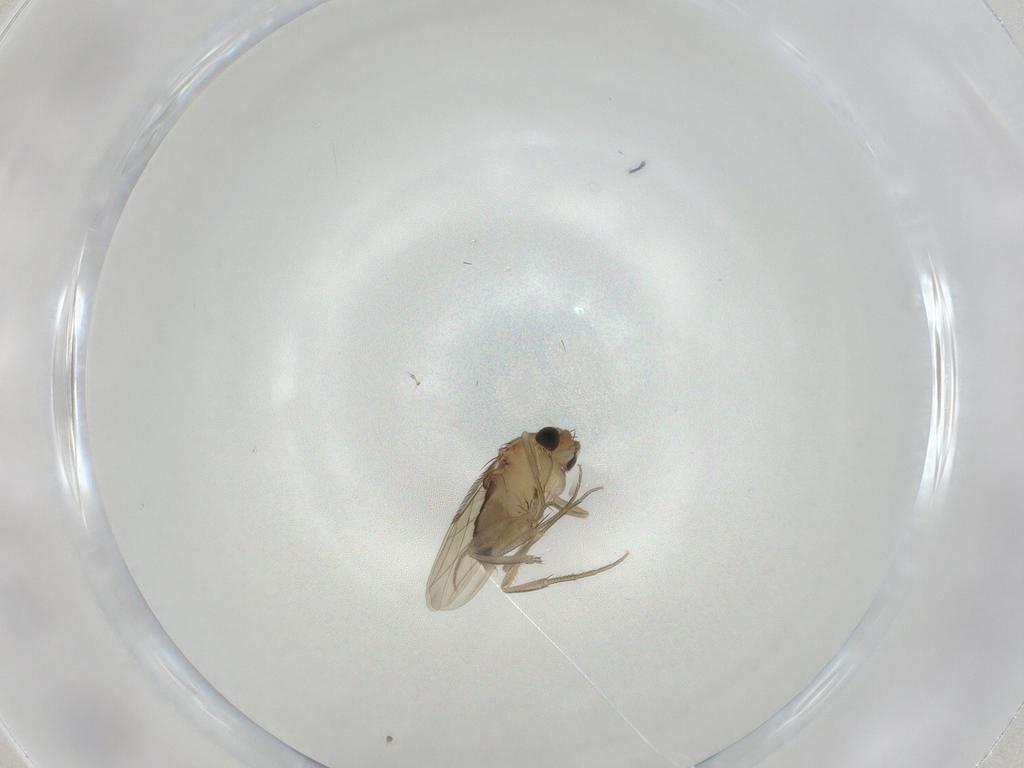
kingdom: Animalia
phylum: Arthropoda
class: Insecta
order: Diptera
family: Phoridae
